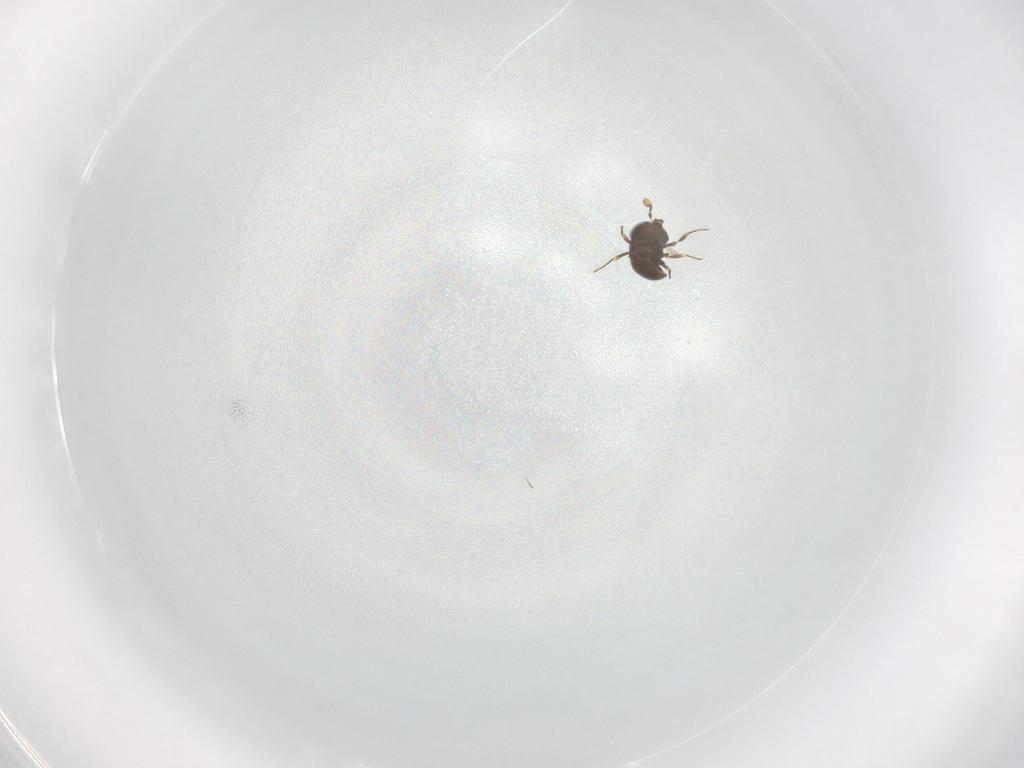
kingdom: Animalia
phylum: Arthropoda
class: Insecta
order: Hymenoptera
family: Scelionidae
